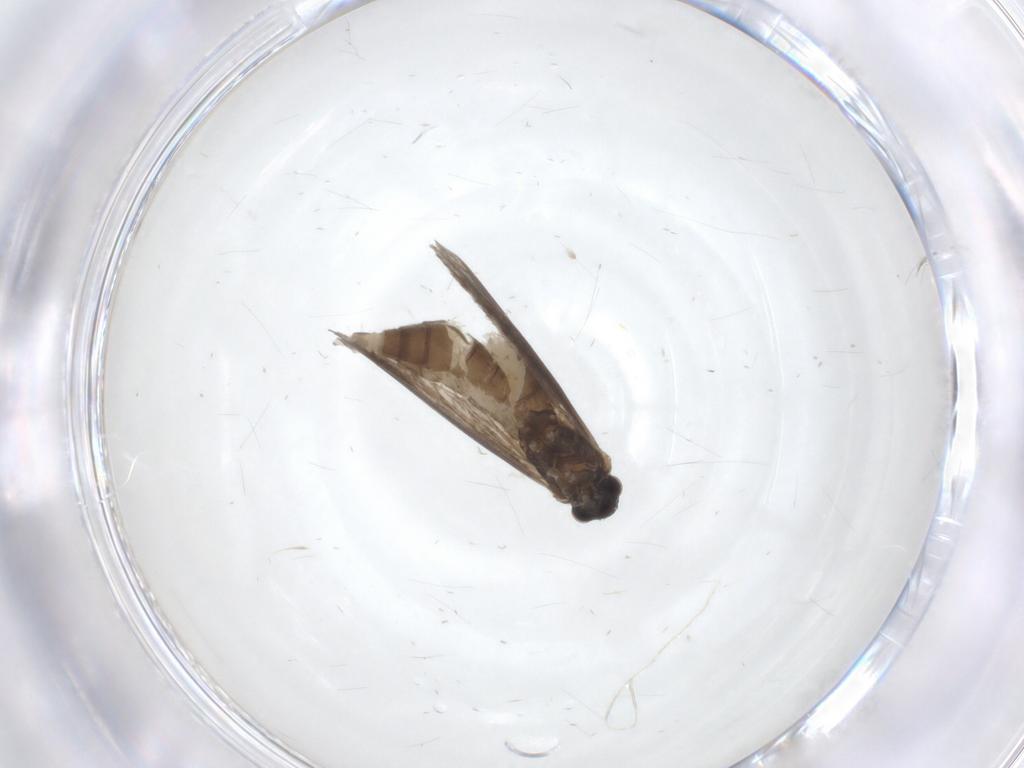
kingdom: Animalia
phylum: Arthropoda
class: Insecta
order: Lepidoptera
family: Micropterigidae
